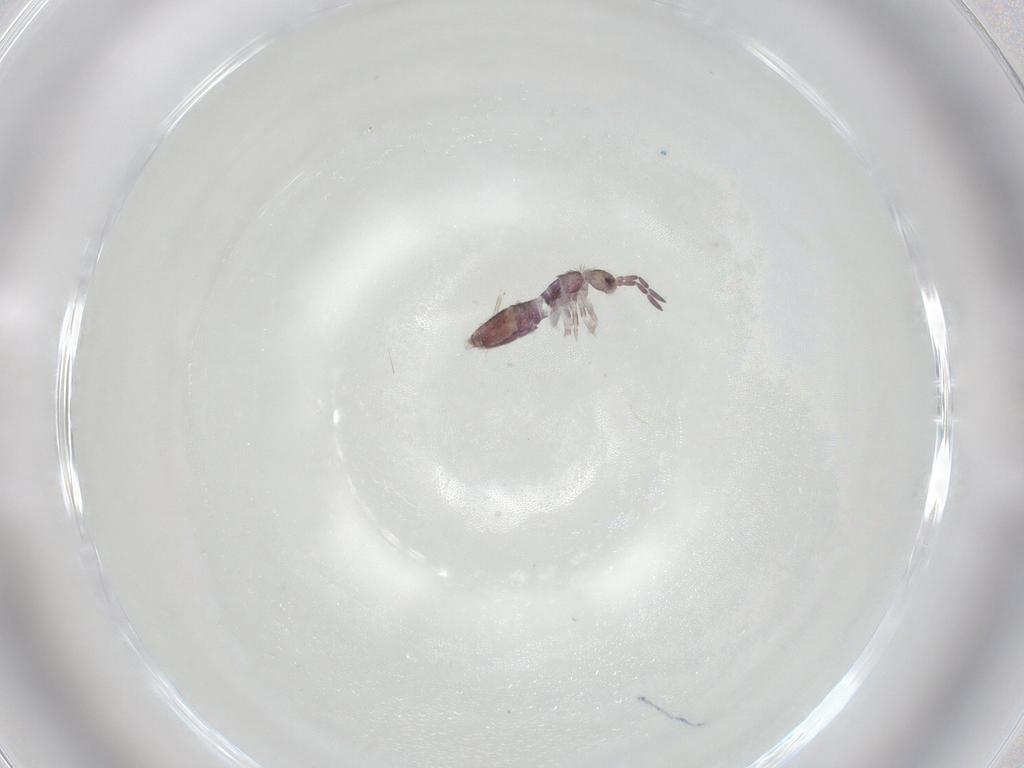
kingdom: Animalia
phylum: Arthropoda
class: Collembola
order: Entomobryomorpha
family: Entomobryidae
